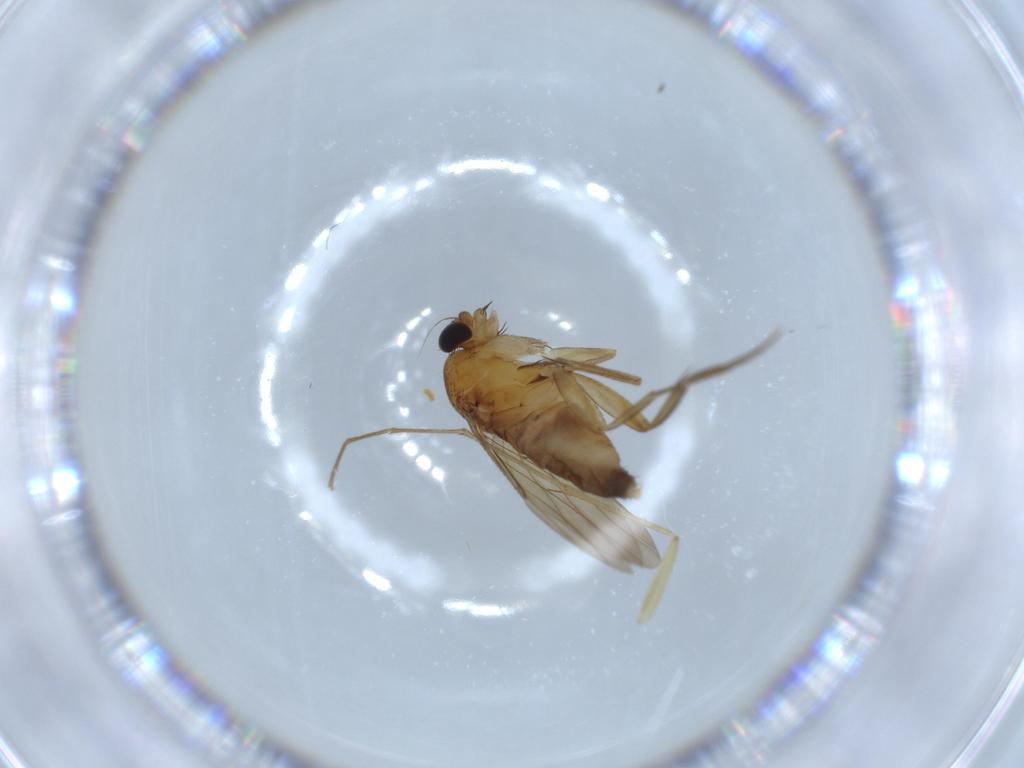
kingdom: Animalia
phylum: Arthropoda
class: Insecta
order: Diptera
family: Phoridae
